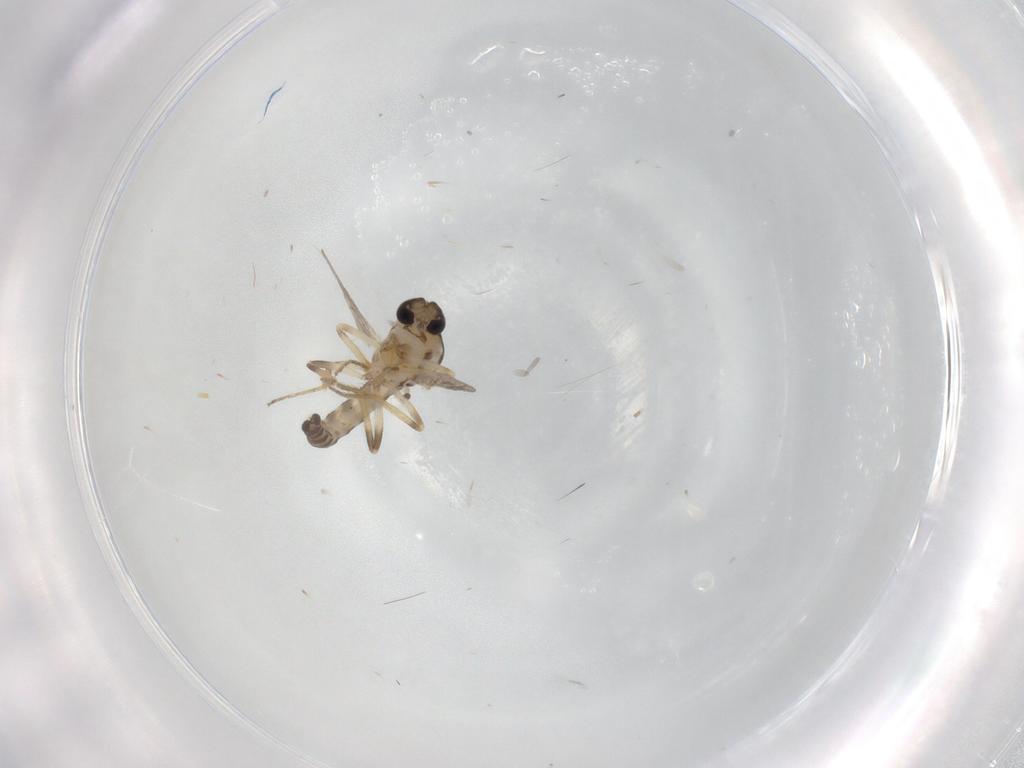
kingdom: Animalia
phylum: Arthropoda
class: Insecta
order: Diptera
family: Ceratopogonidae
